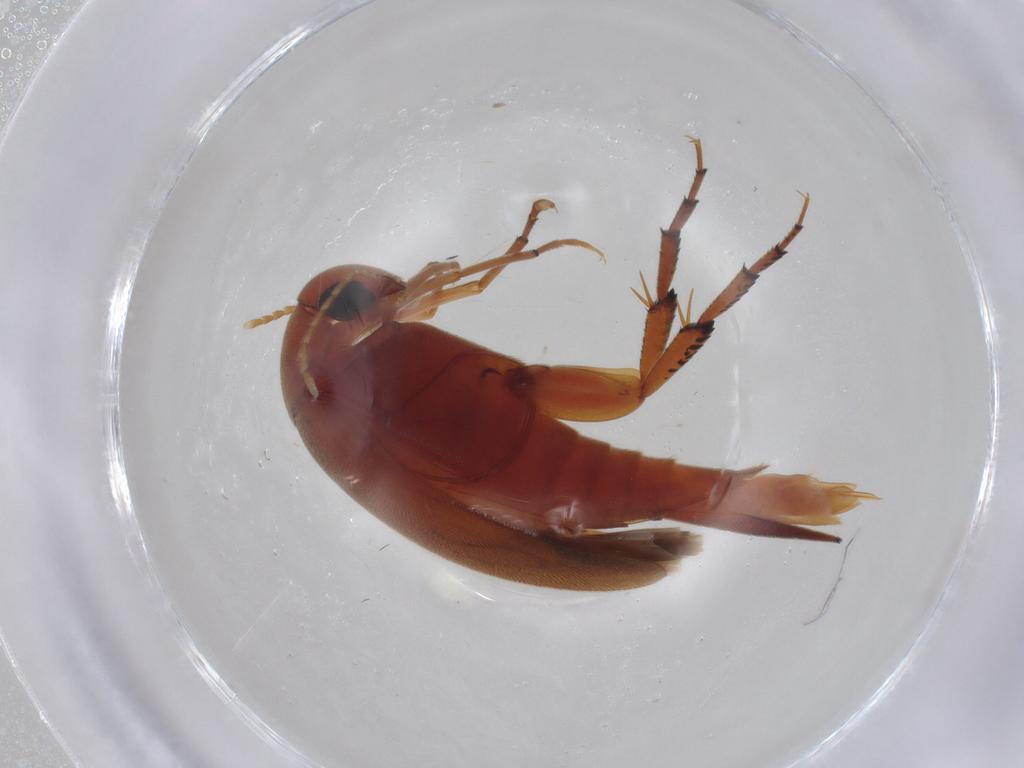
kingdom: Animalia
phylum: Arthropoda
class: Insecta
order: Coleoptera
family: Mordellidae
